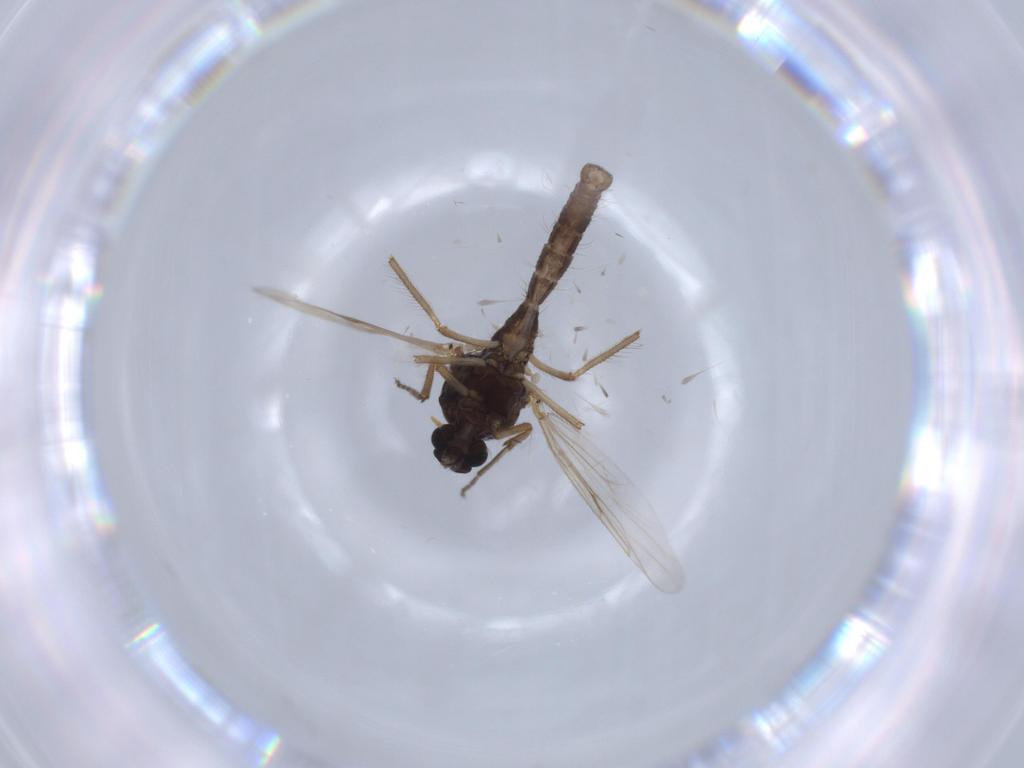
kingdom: Animalia
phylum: Arthropoda
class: Insecta
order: Diptera
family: Ceratopogonidae
